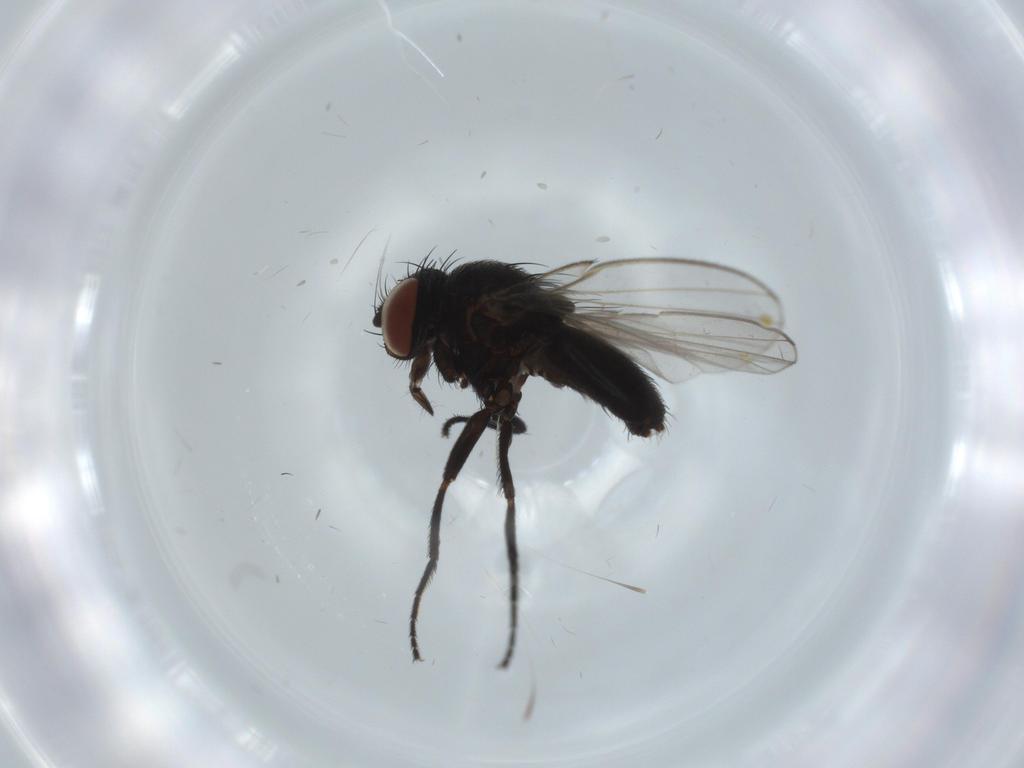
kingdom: Animalia
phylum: Arthropoda
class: Insecta
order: Diptera
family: Milichiidae
